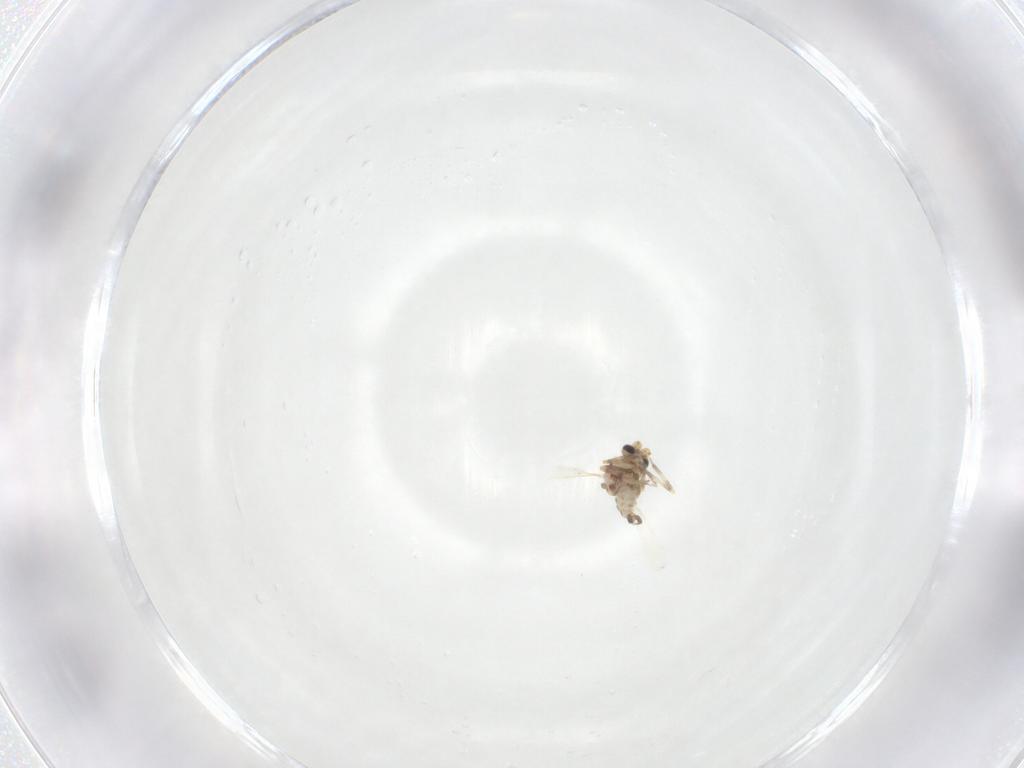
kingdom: Animalia
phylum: Arthropoda
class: Insecta
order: Diptera
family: Ceratopogonidae
